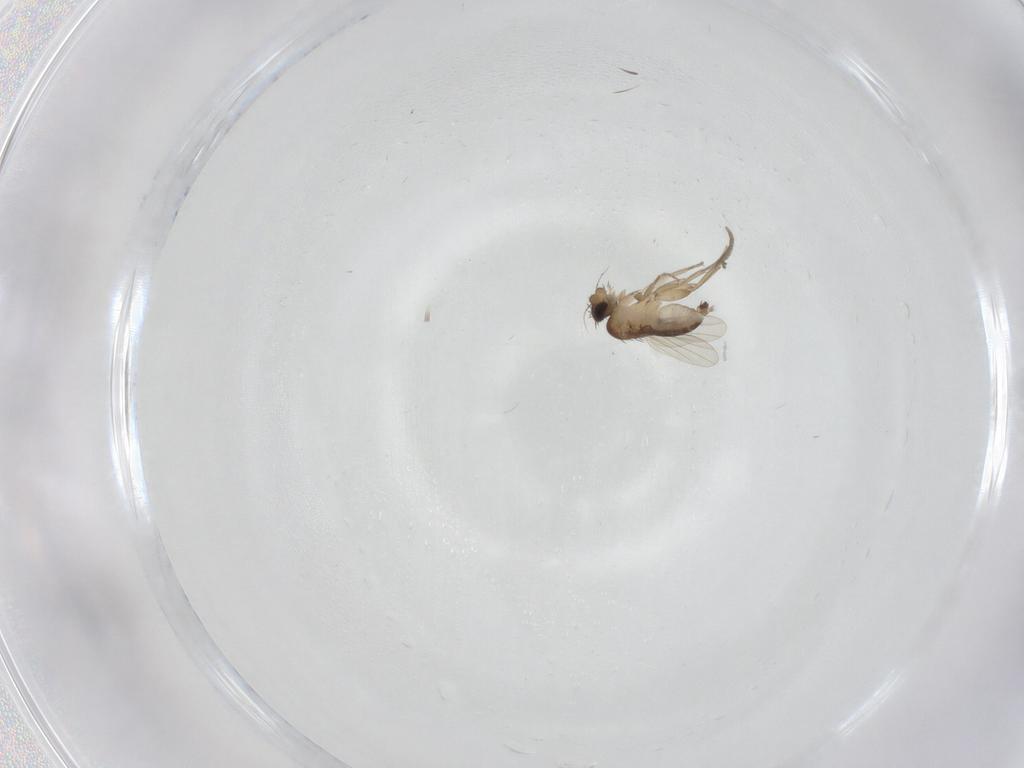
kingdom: Animalia
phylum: Arthropoda
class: Insecta
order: Diptera
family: Phoridae
